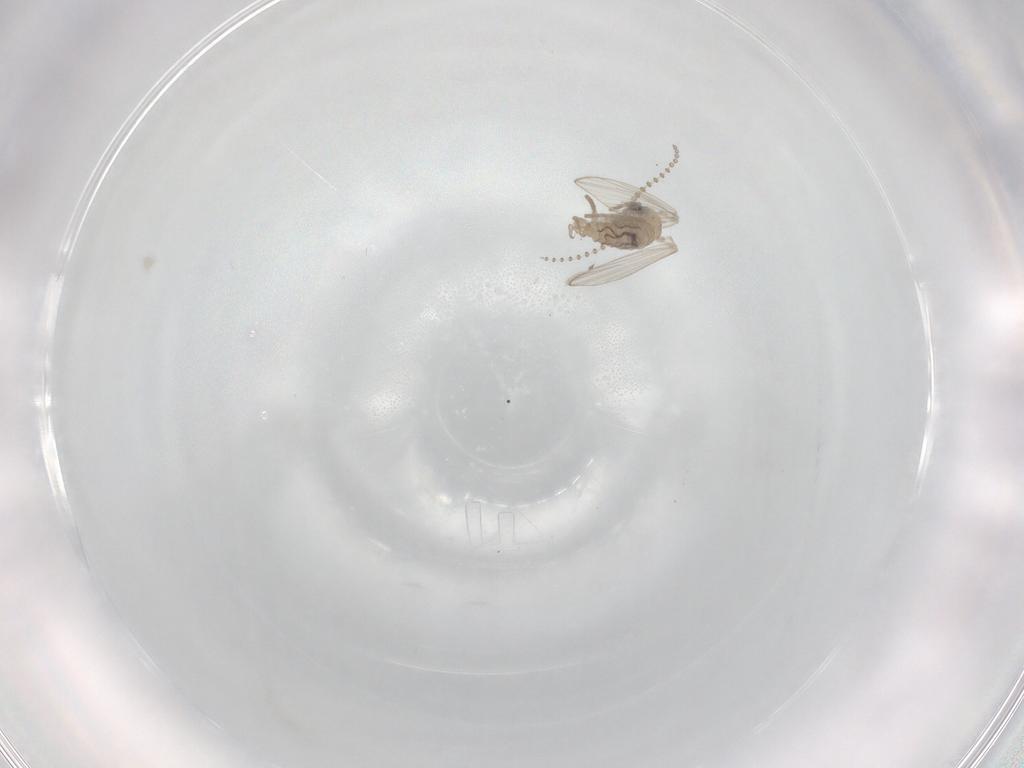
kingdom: Animalia
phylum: Arthropoda
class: Insecta
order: Diptera
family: Psychodidae
